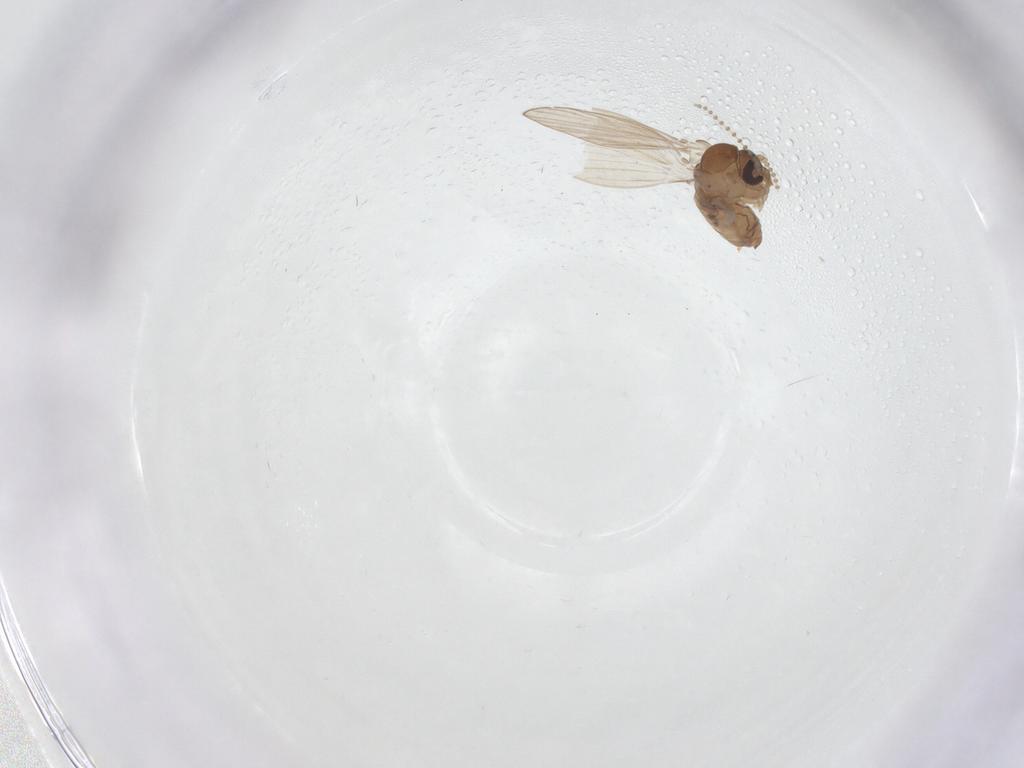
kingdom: Animalia
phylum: Arthropoda
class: Insecta
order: Diptera
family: Psychodidae
